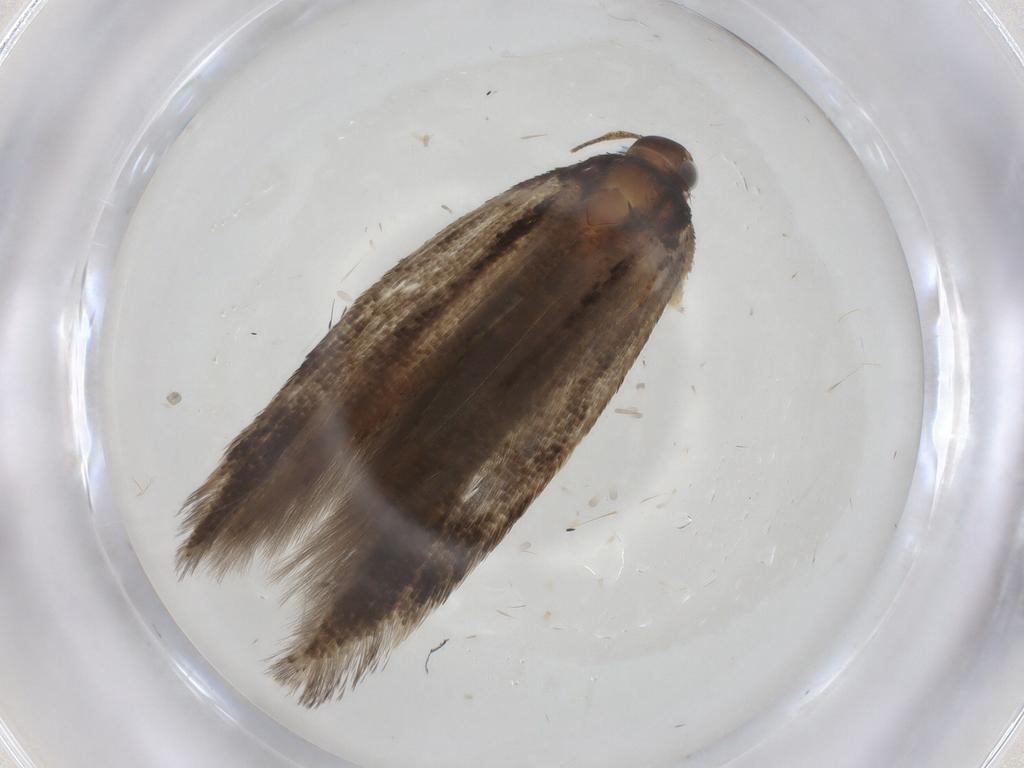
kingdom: Animalia
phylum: Arthropoda
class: Insecta
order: Lepidoptera
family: Gelechiidae
